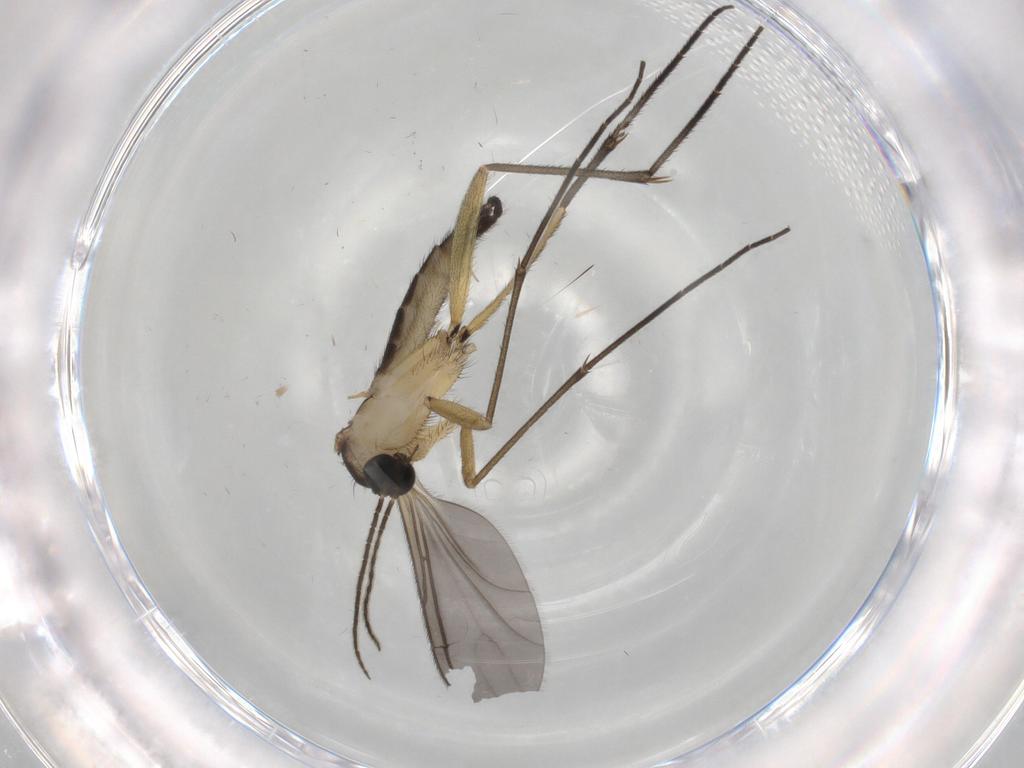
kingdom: Animalia
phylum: Arthropoda
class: Insecta
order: Diptera
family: Sciaridae
